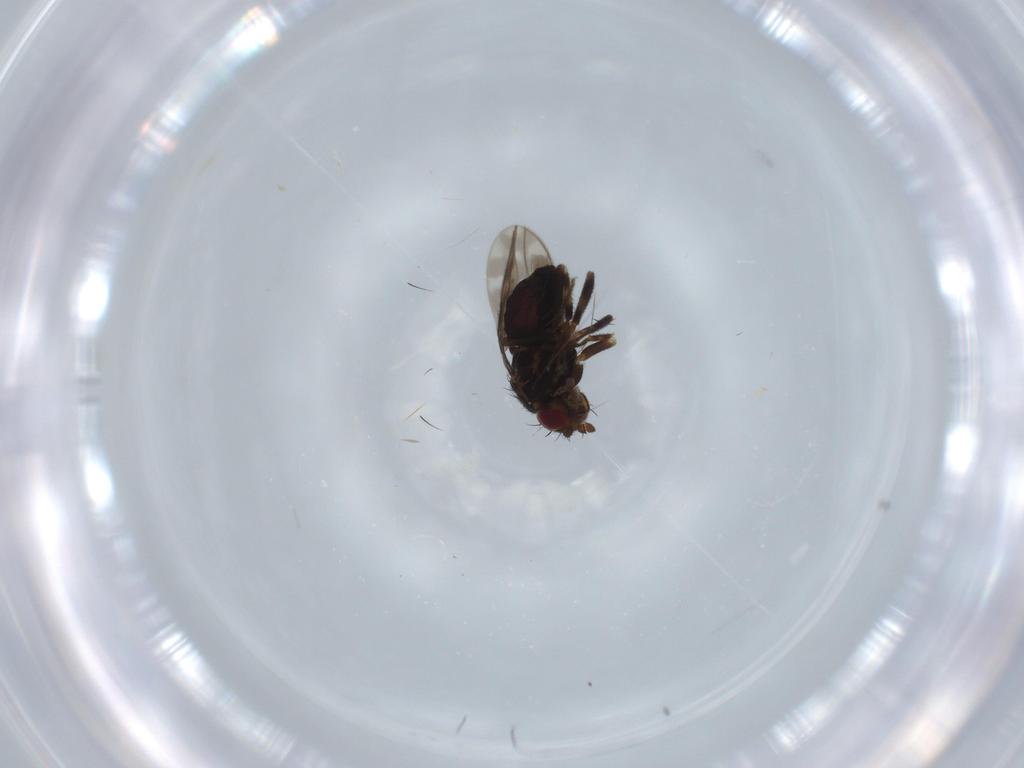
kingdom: Animalia
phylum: Arthropoda
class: Insecta
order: Diptera
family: Sphaeroceridae
